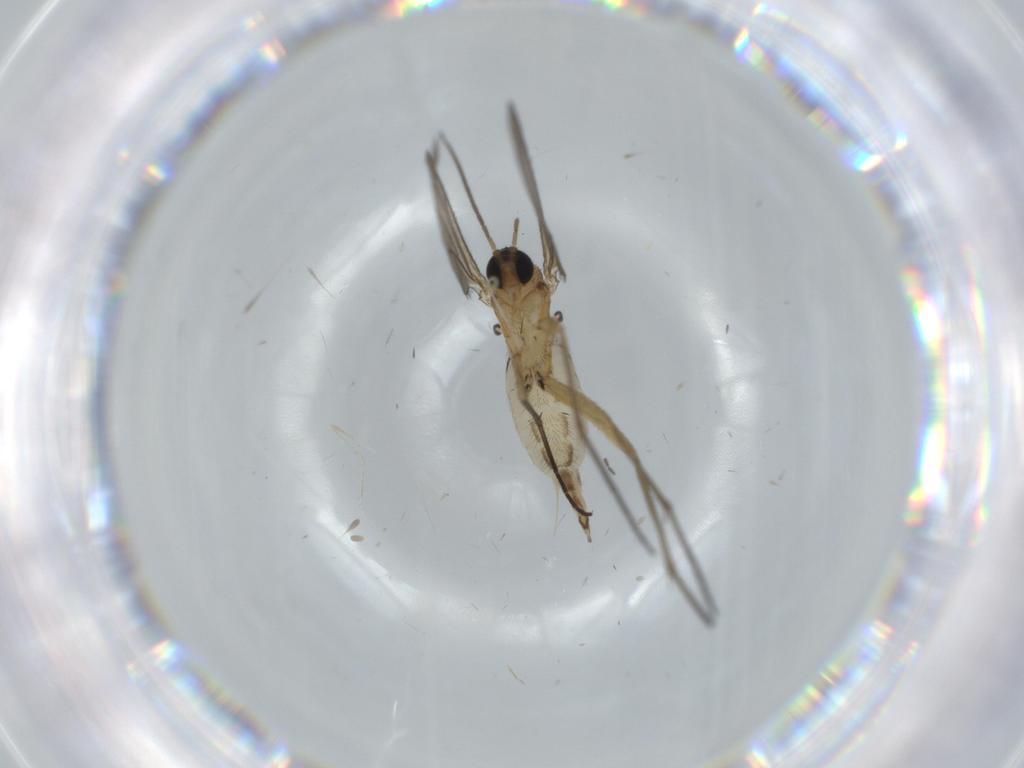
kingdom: Animalia
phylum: Arthropoda
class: Insecta
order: Diptera
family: Cecidomyiidae
